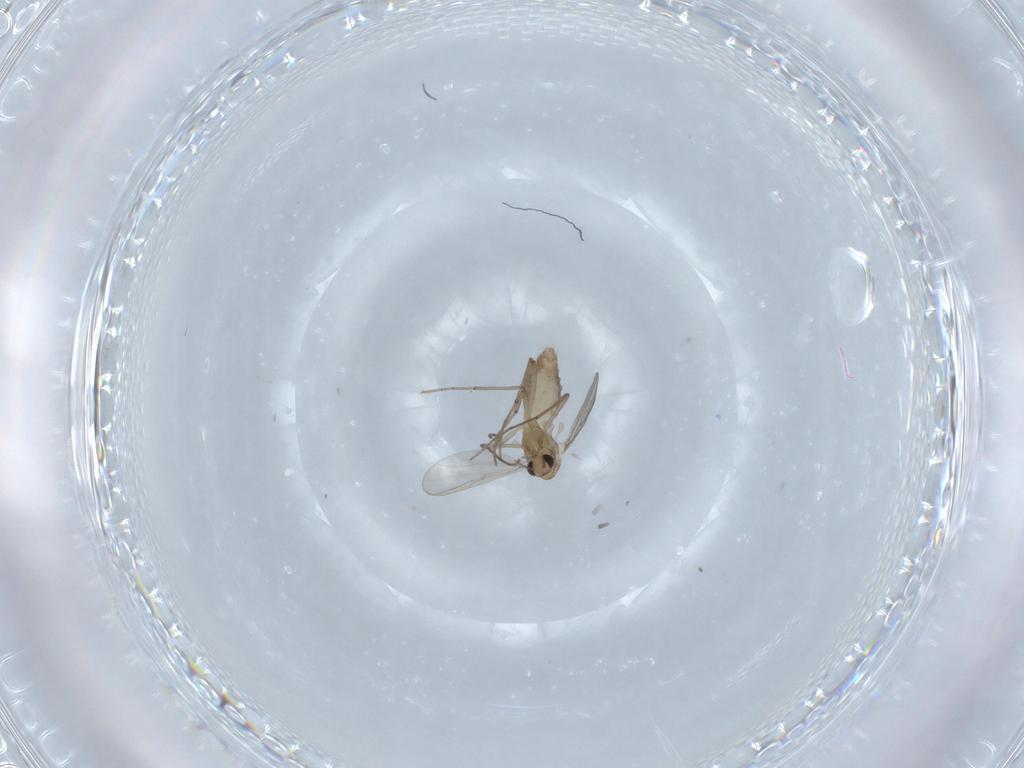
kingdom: Animalia
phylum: Arthropoda
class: Insecta
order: Diptera
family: Chironomidae
